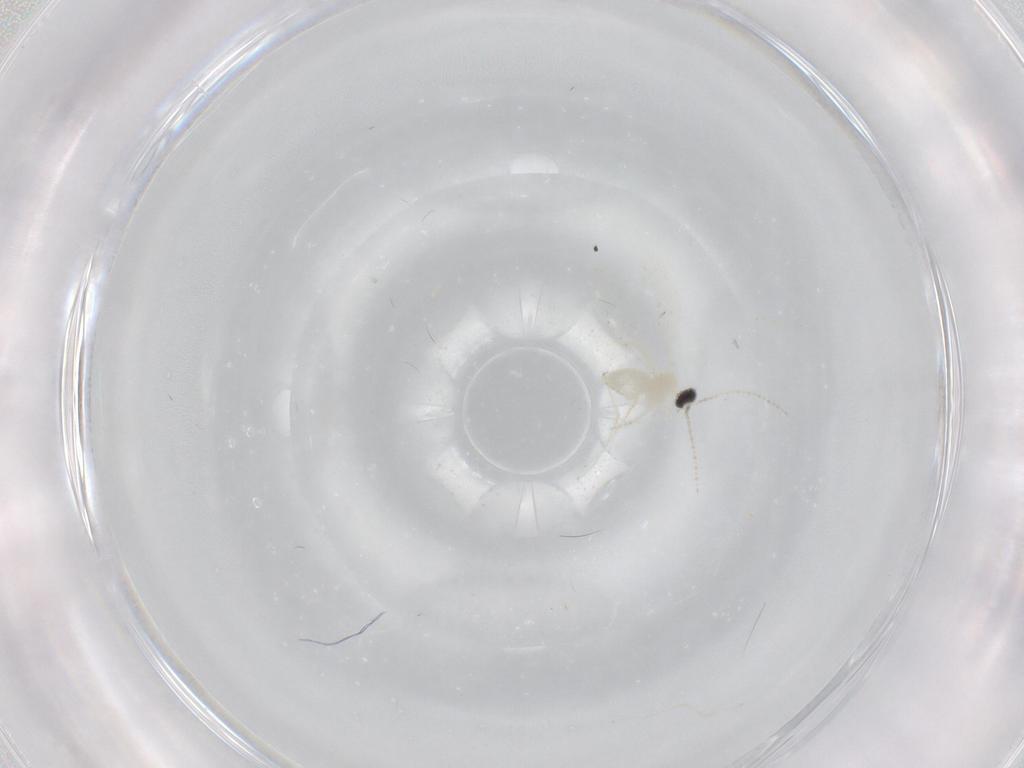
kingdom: Animalia
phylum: Arthropoda
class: Insecta
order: Diptera
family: Cecidomyiidae
